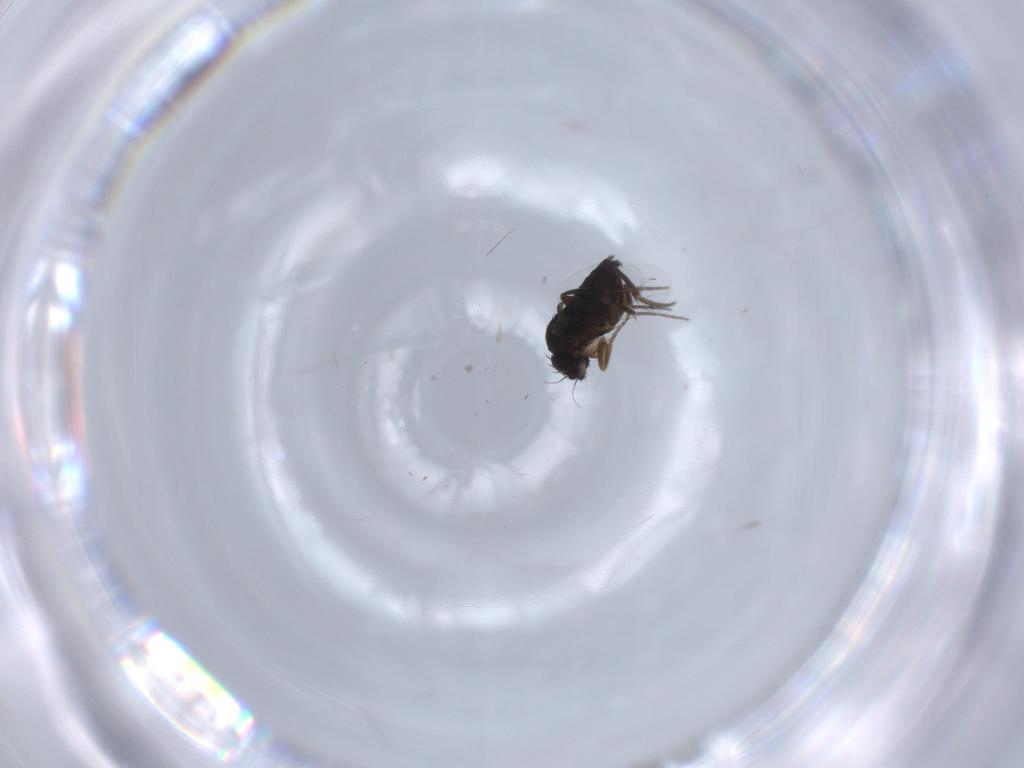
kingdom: Animalia
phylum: Arthropoda
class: Insecta
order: Diptera
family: Phoridae
